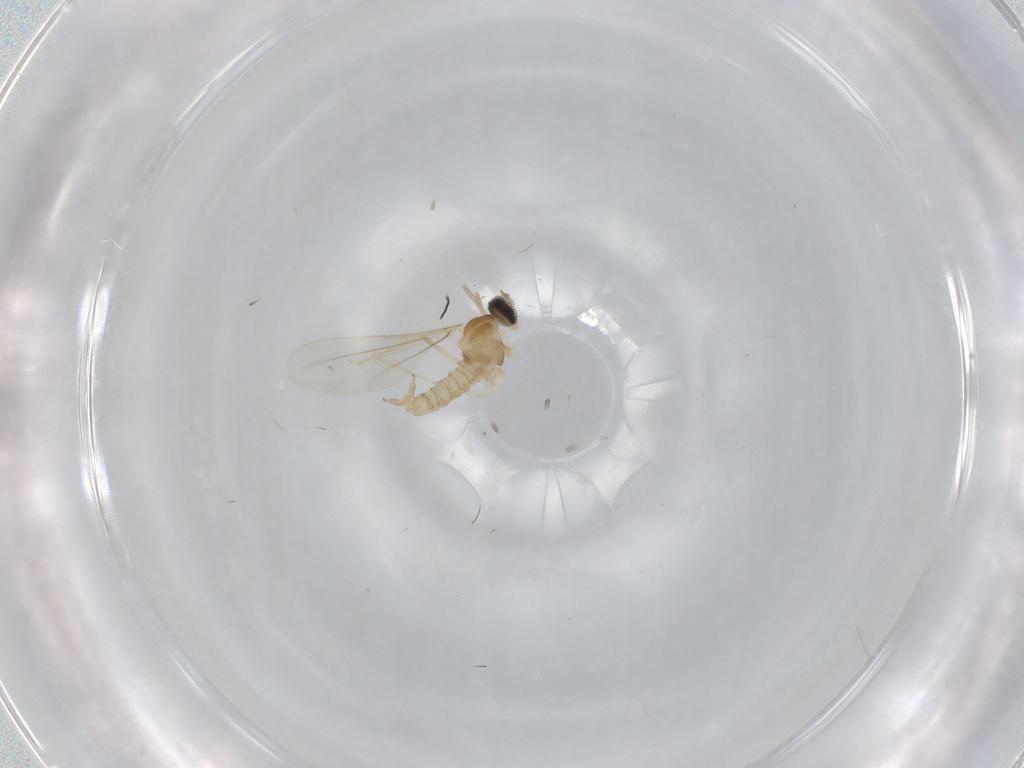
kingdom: Animalia
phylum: Arthropoda
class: Insecta
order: Diptera
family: Cecidomyiidae
